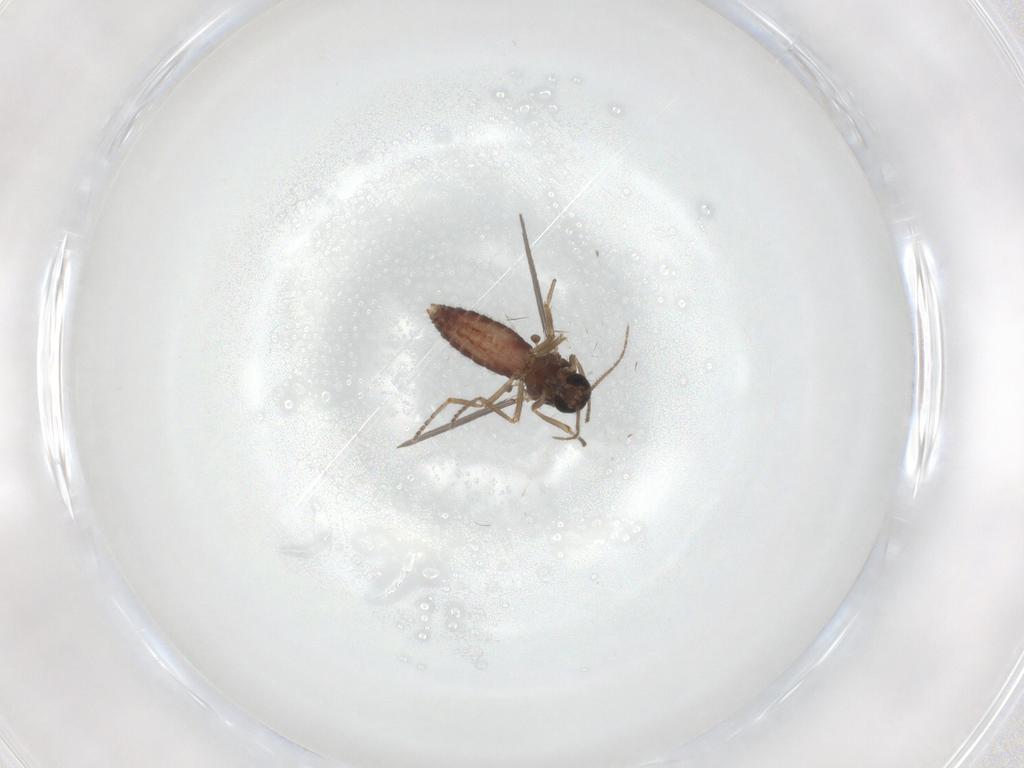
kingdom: Animalia
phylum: Arthropoda
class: Insecta
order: Diptera
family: Ceratopogonidae
